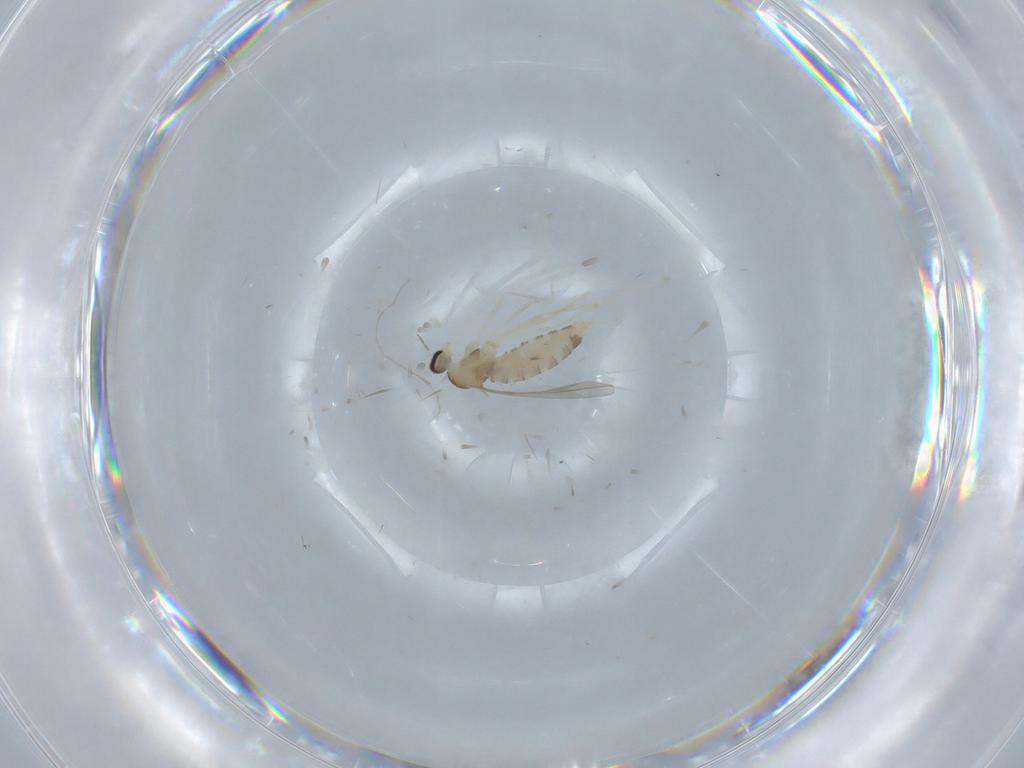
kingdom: Animalia
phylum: Arthropoda
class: Insecta
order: Diptera
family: Cecidomyiidae
